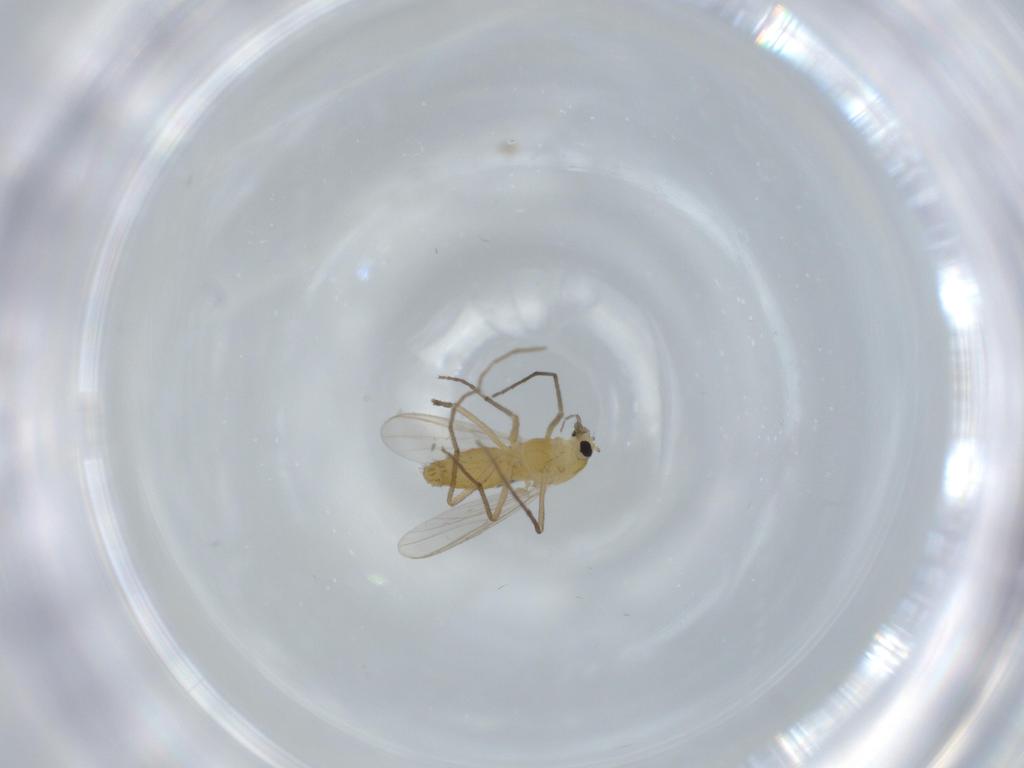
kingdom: Animalia
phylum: Arthropoda
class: Insecta
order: Diptera
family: Chironomidae
